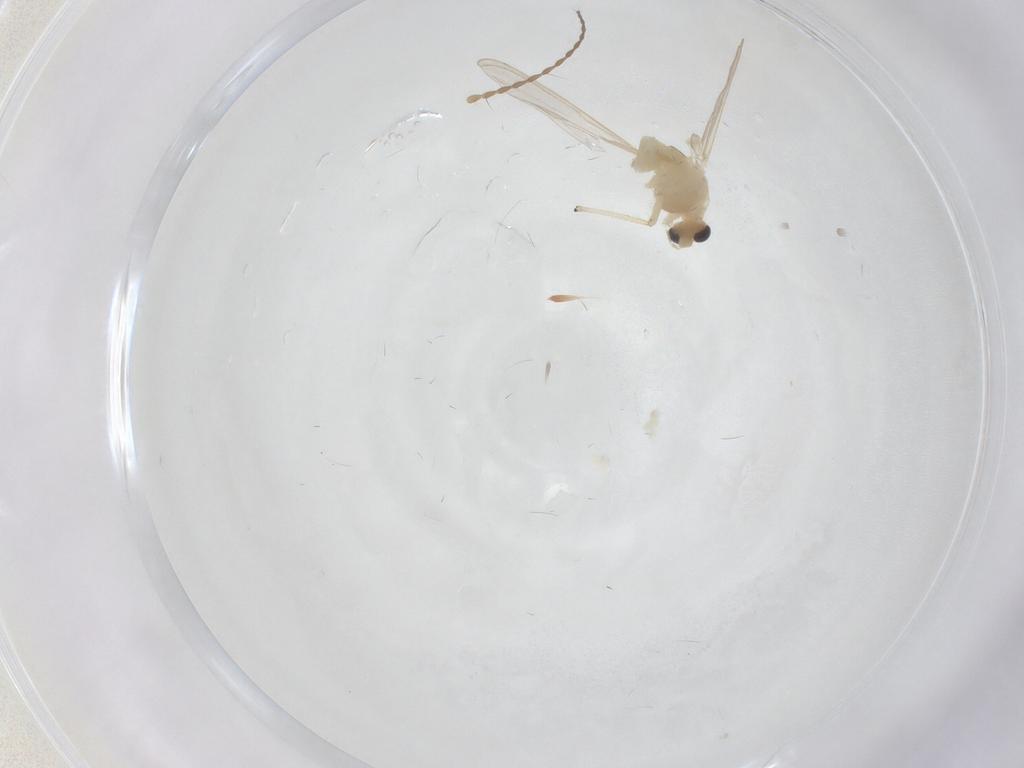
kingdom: Animalia
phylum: Arthropoda
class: Insecta
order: Diptera
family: Chironomidae
